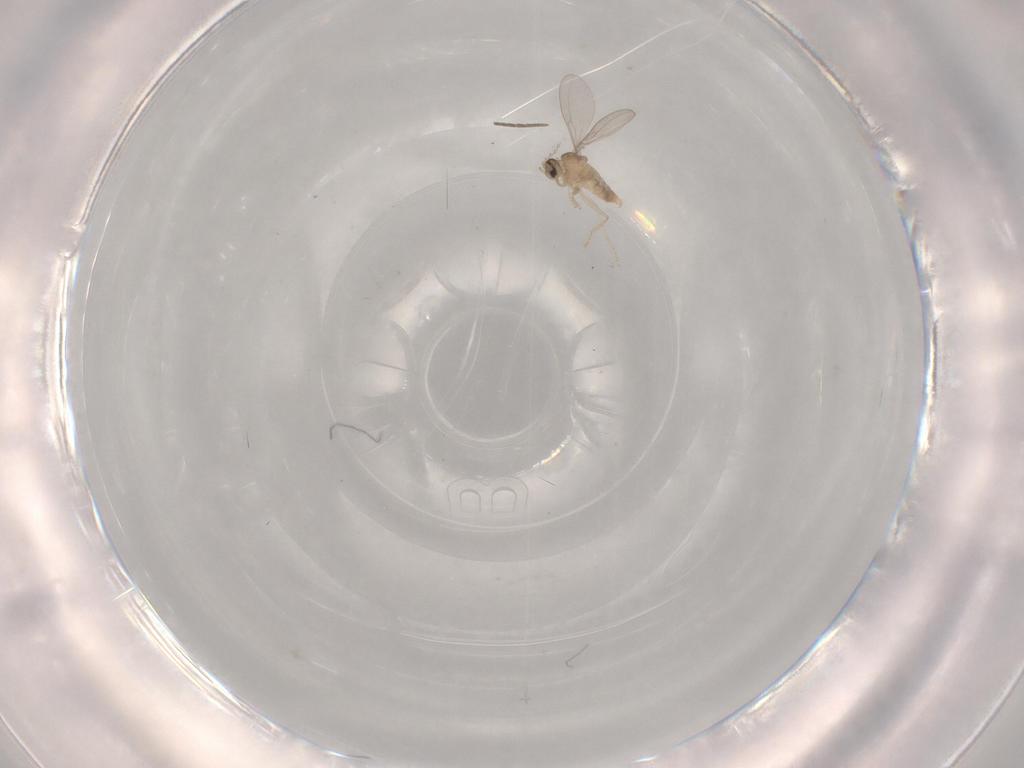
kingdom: Animalia
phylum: Arthropoda
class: Insecta
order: Diptera
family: Cecidomyiidae
